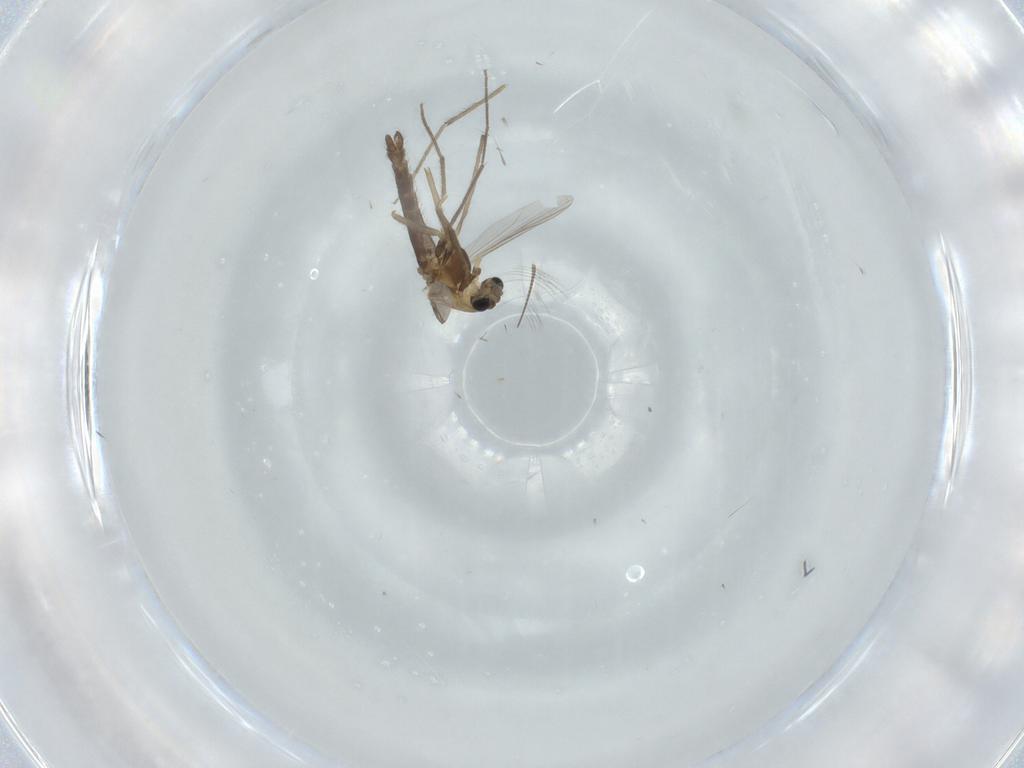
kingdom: Animalia
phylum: Arthropoda
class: Insecta
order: Diptera
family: Chironomidae
